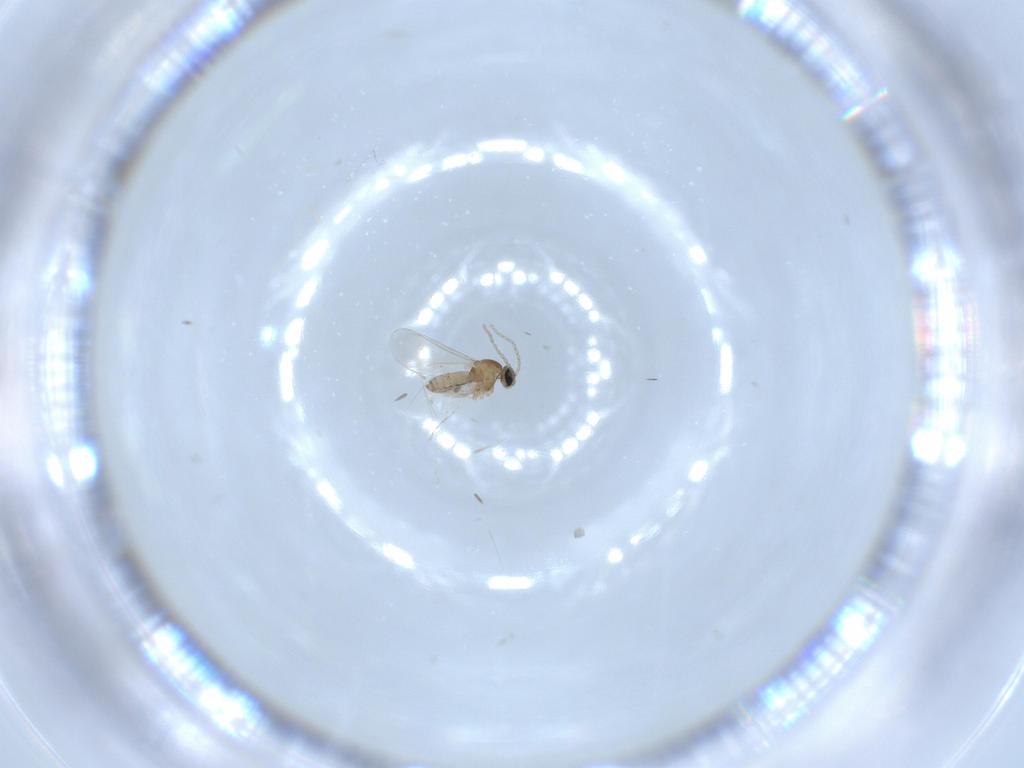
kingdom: Animalia
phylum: Arthropoda
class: Insecta
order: Diptera
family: Cecidomyiidae
